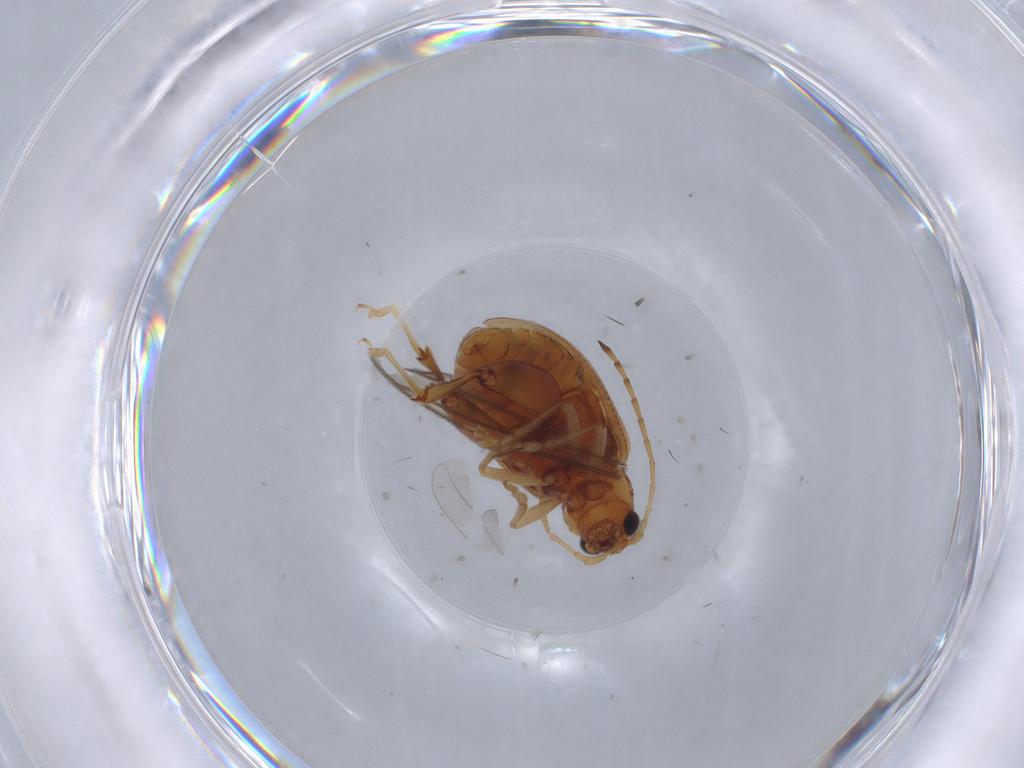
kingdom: Animalia
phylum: Arthropoda
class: Insecta
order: Coleoptera
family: Chrysomelidae
